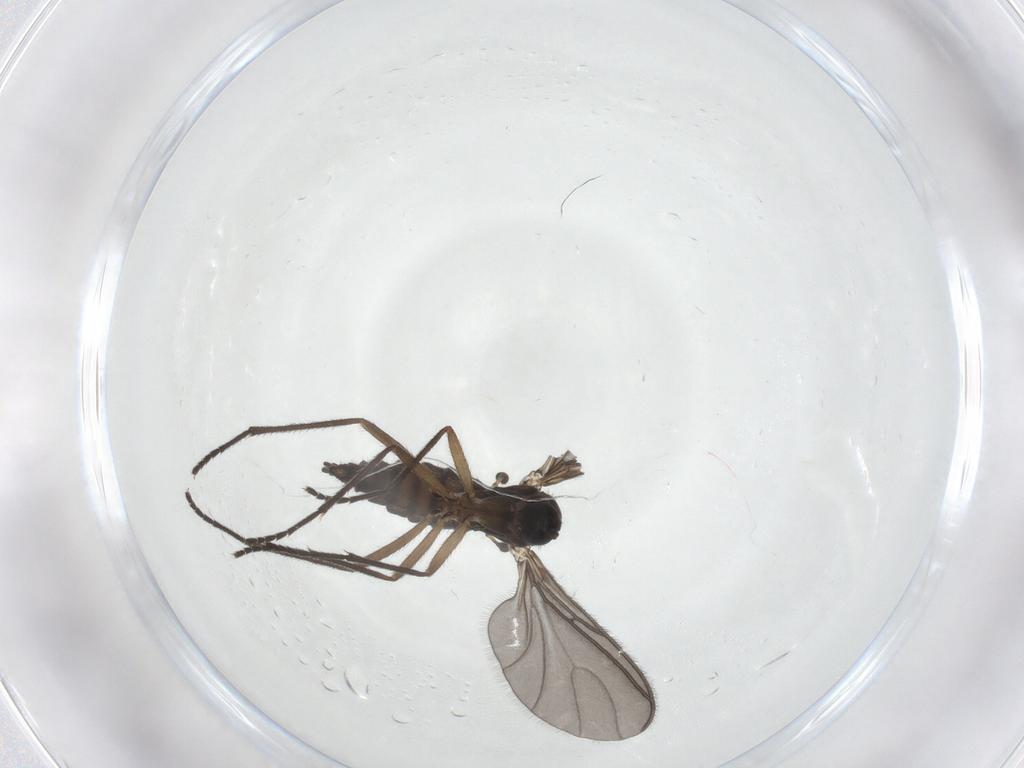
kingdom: Animalia
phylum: Arthropoda
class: Insecta
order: Diptera
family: Sciaridae
